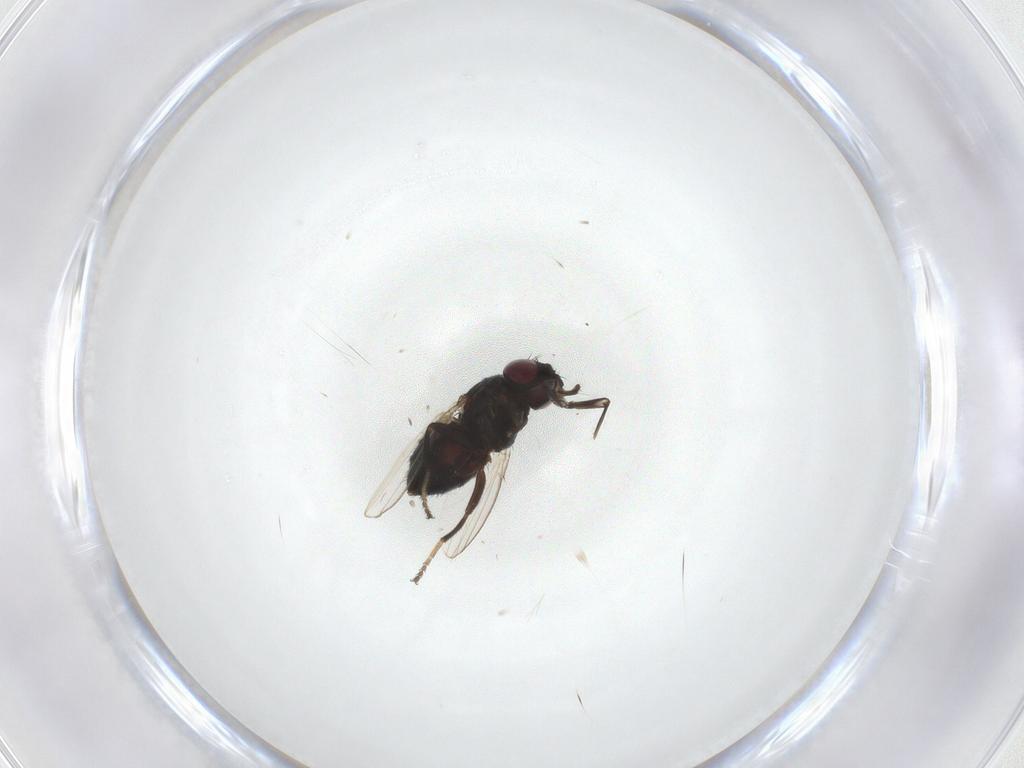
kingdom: Animalia
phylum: Arthropoda
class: Insecta
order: Diptera
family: Milichiidae
